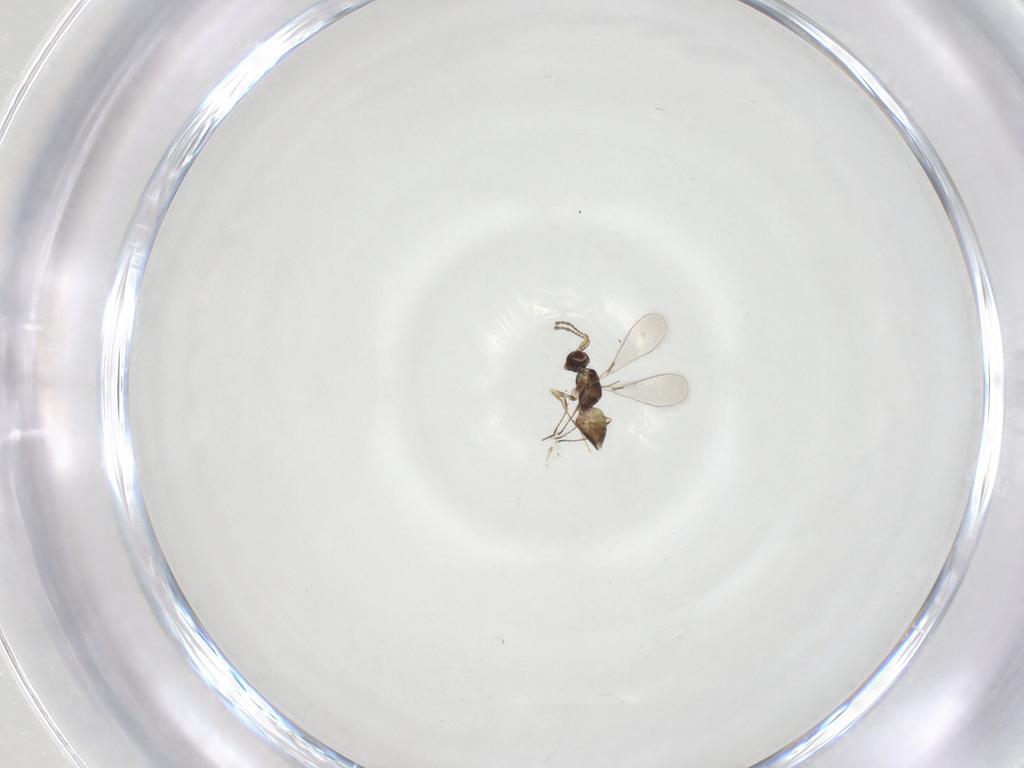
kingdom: Animalia
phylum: Arthropoda
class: Insecta
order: Hymenoptera
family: Mymaridae
